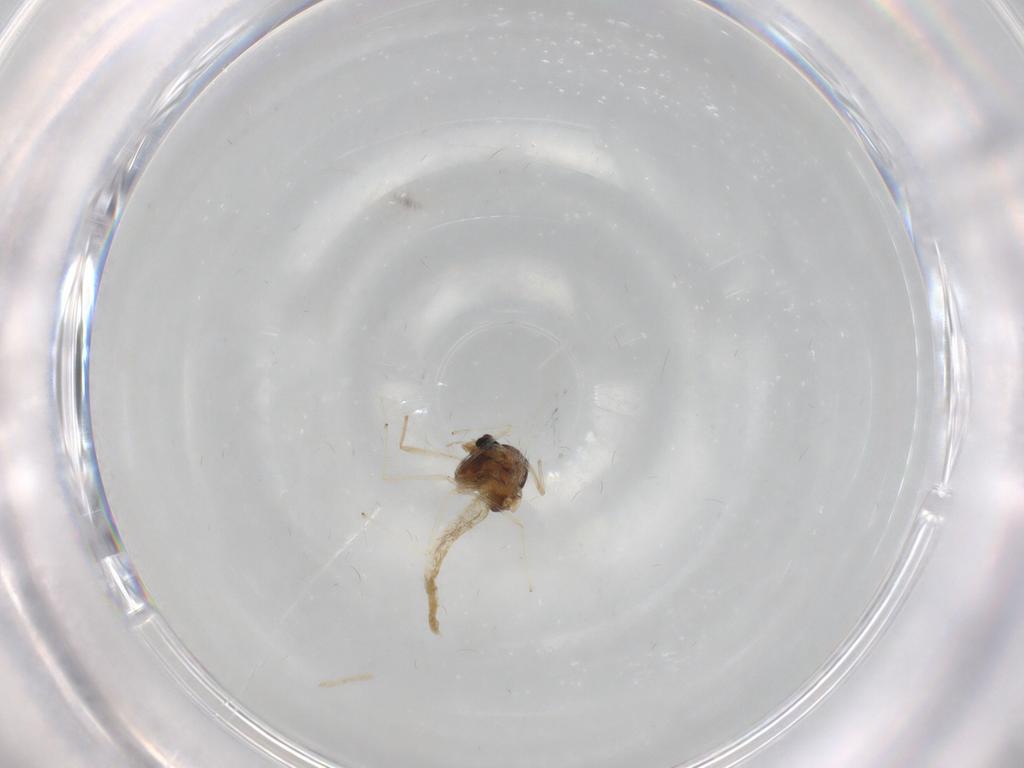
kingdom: Animalia
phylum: Arthropoda
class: Insecta
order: Diptera
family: Chironomidae
